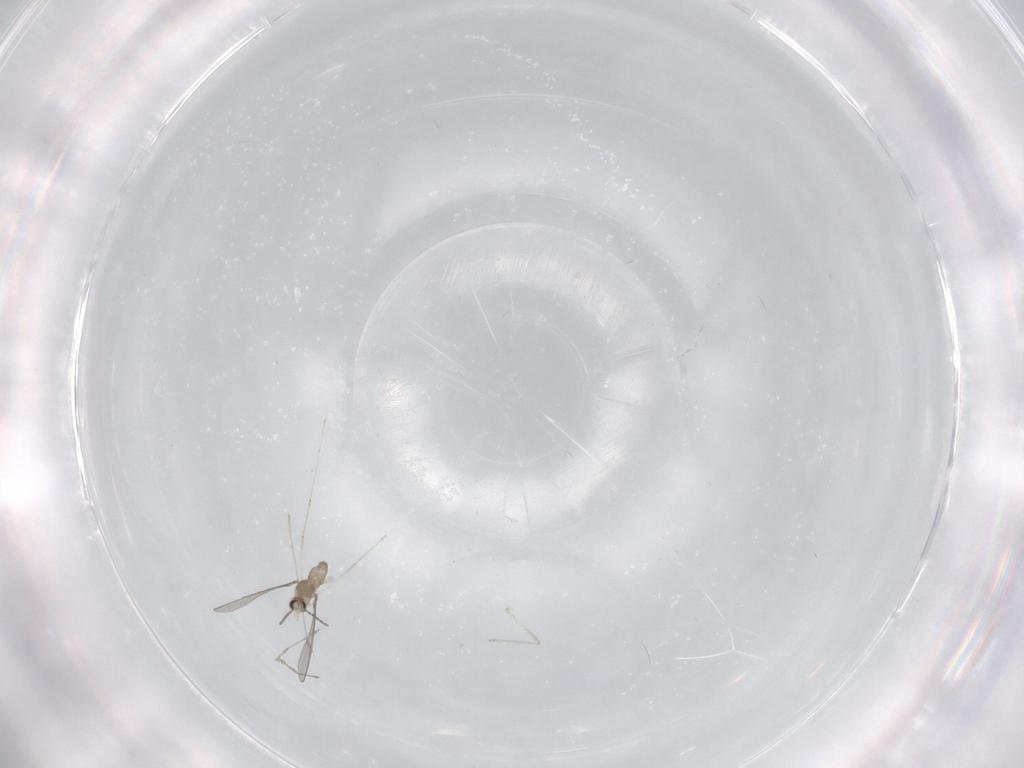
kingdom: Animalia
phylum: Arthropoda
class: Insecta
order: Diptera
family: Cecidomyiidae
